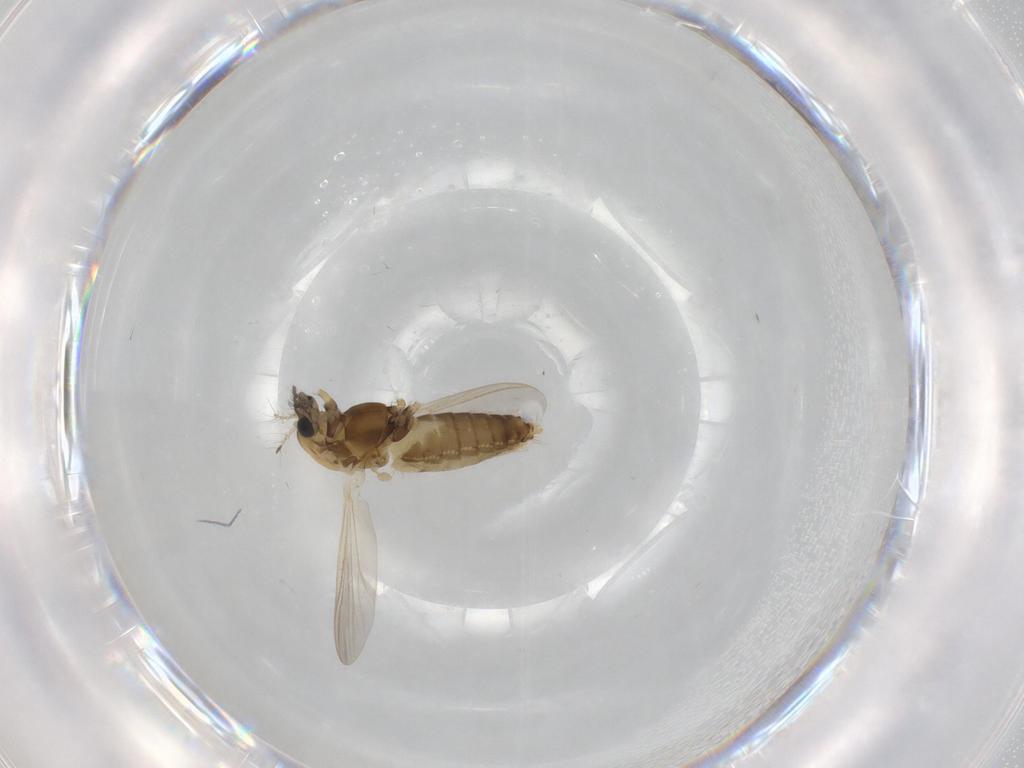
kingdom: Animalia
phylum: Arthropoda
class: Insecta
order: Diptera
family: Chironomidae
